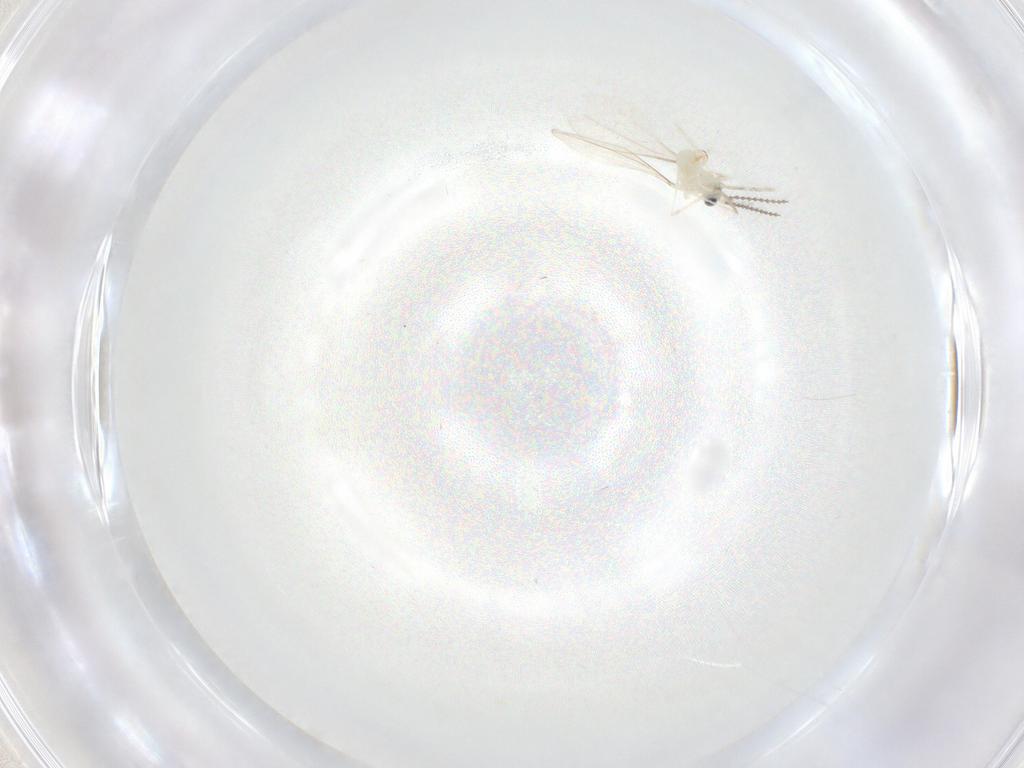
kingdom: Animalia
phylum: Arthropoda
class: Insecta
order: Diptera
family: Cecidomyiidae
